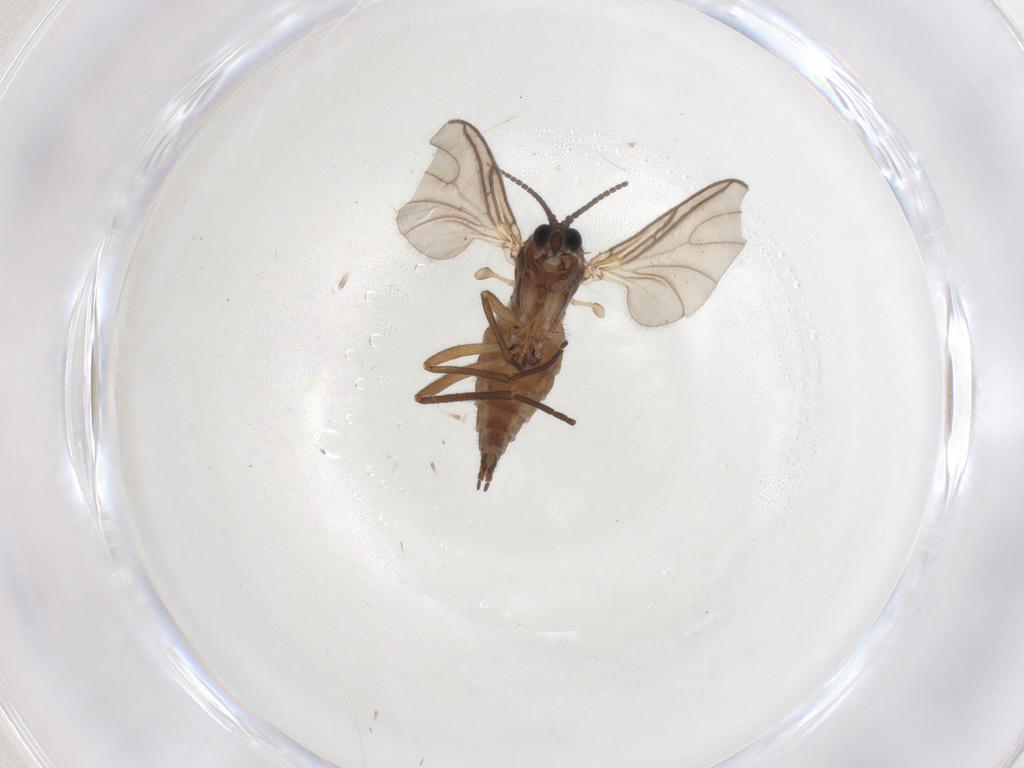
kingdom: Animalia
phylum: Arthropoda
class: Insecta
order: Diptera
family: Sciaridae
